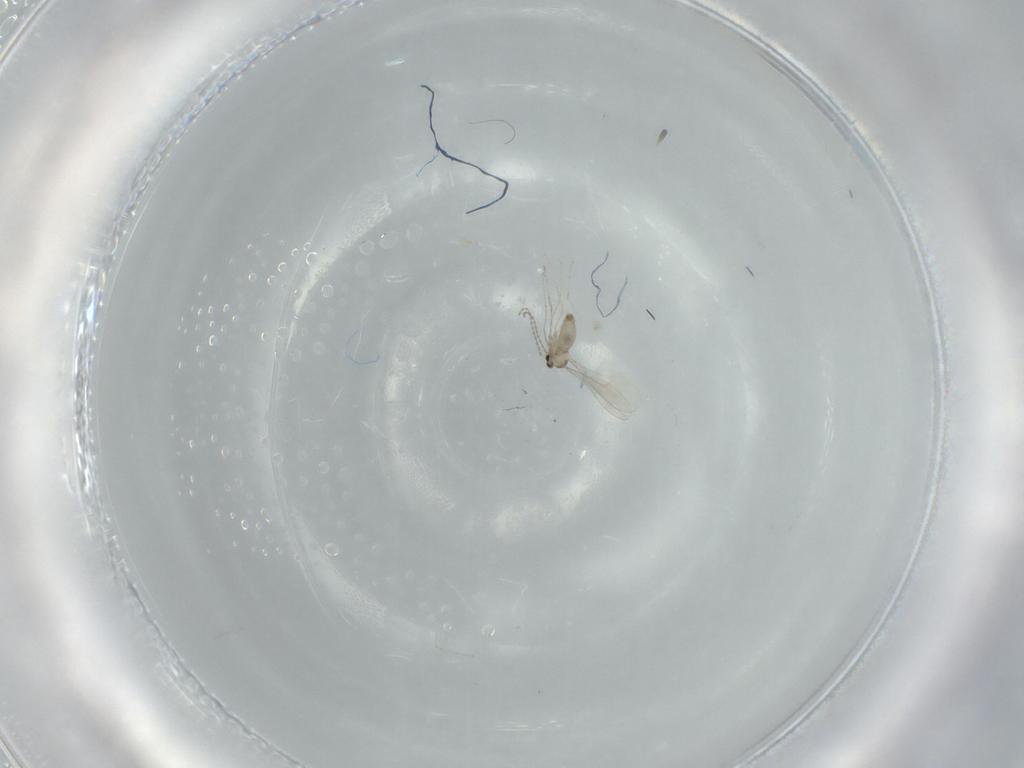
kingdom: Animalia
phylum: Arthropoda
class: Insecta
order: Diptera
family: Cecidomyiidae
